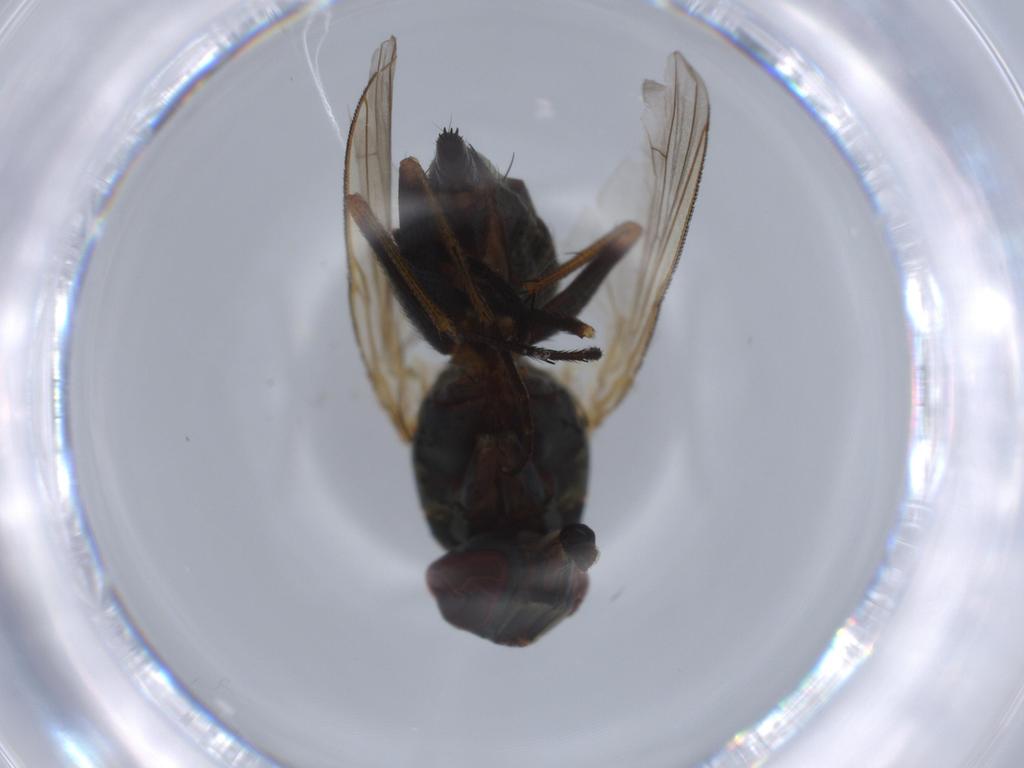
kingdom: Animalia
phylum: Arthropoda
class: Insecta
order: Diptera
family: Muscidae
